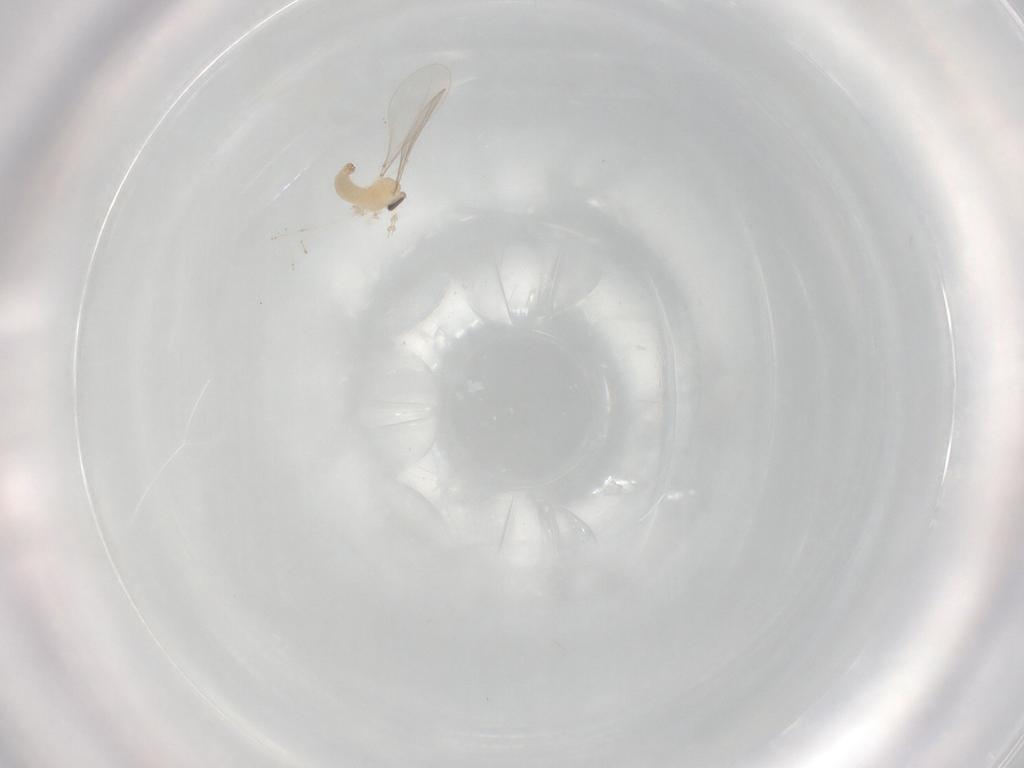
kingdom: Animalia
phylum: Arthropoda
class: Insecta
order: Diptera
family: Cecidomyiidae
